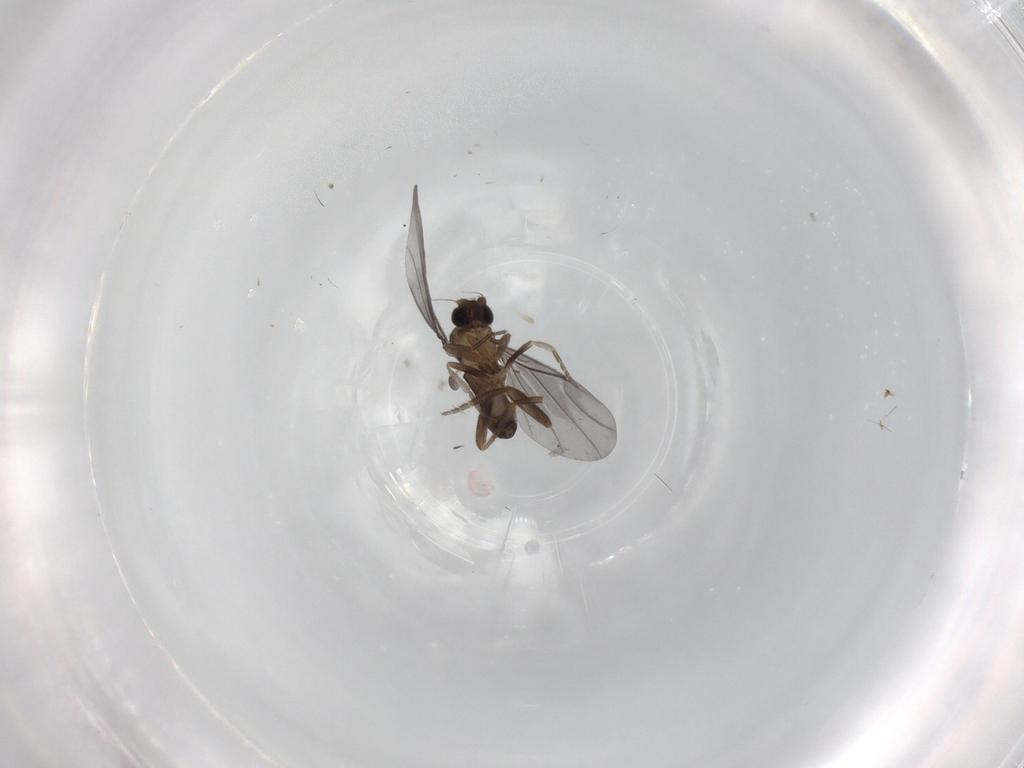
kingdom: Animalia
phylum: Arthropoda
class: Insecta
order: Diptera
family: Phoridae
